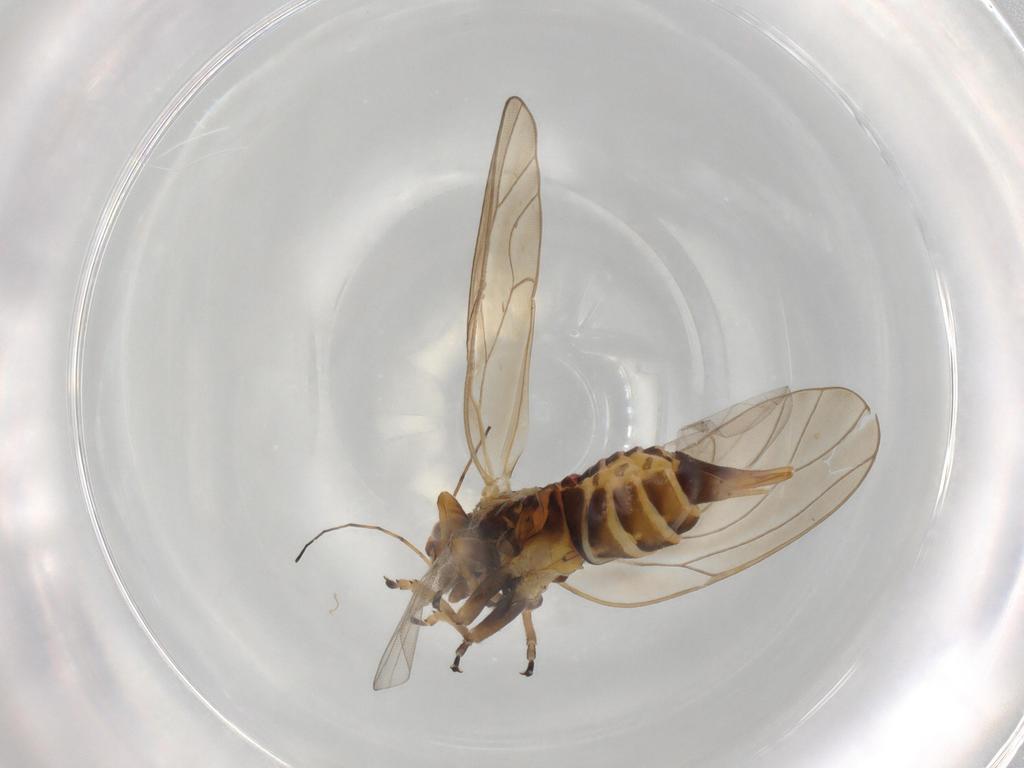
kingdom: Animalia
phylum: Arthropoda
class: Insecta
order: Hemiptera
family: Psyllidae
